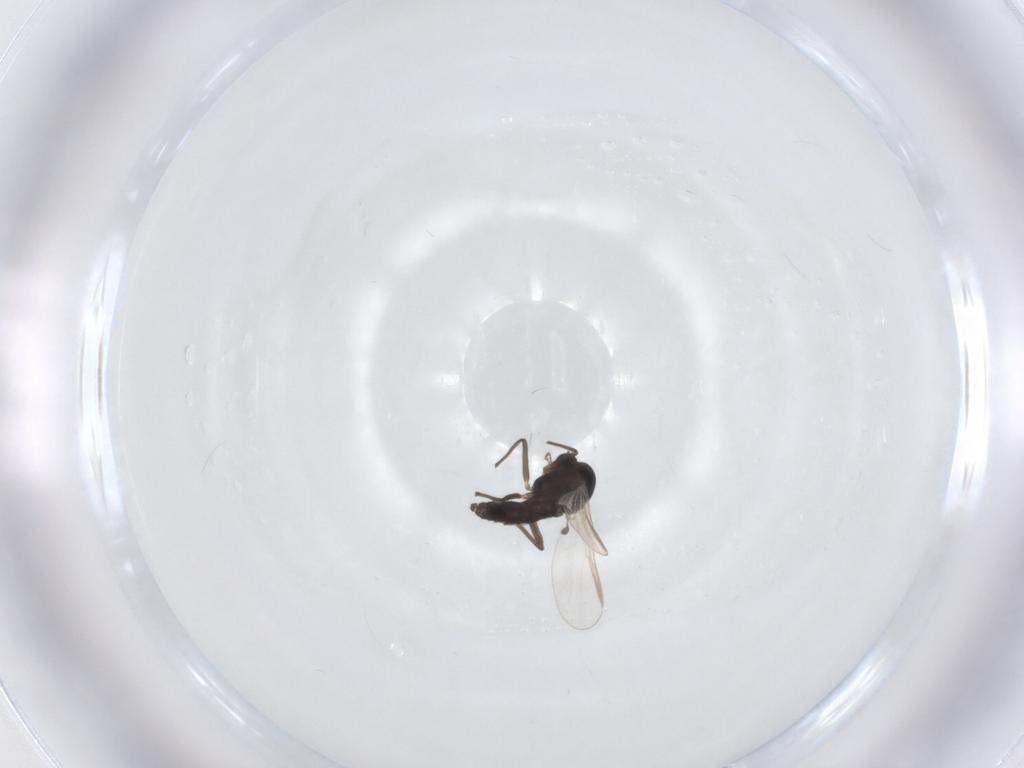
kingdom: Animalia
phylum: Arthropoda
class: Insecta
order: Diptera
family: Chironomidae
